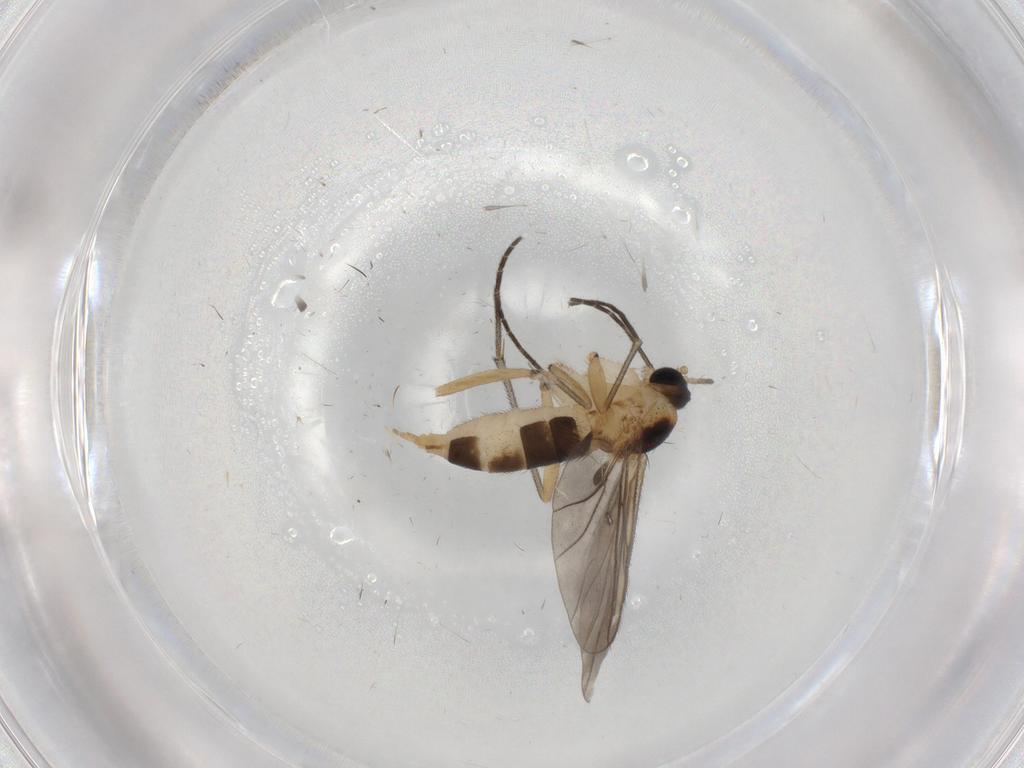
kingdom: Animalia
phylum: Arthropoda
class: Insecta
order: Diptera
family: Sciaridae
